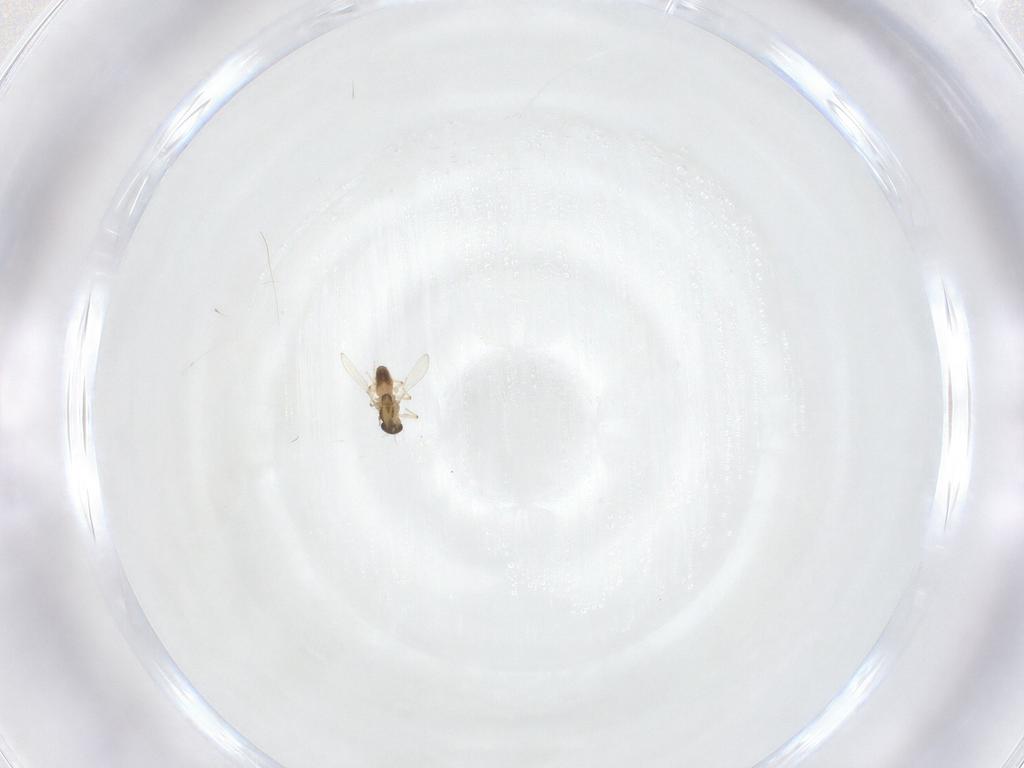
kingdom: Animalia
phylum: Arthropoda
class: Insecta
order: Diptera
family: Chironomidae
